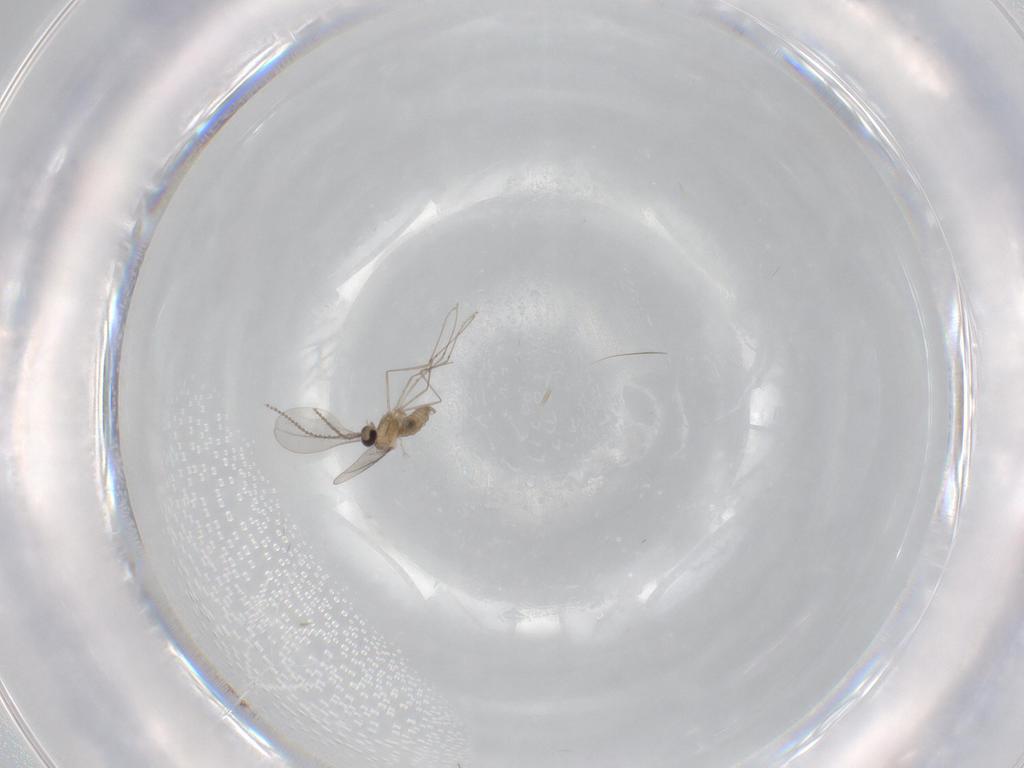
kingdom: Animalia
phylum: Arthropoda
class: Insecta
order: Diptera
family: Cecidomyiidae
